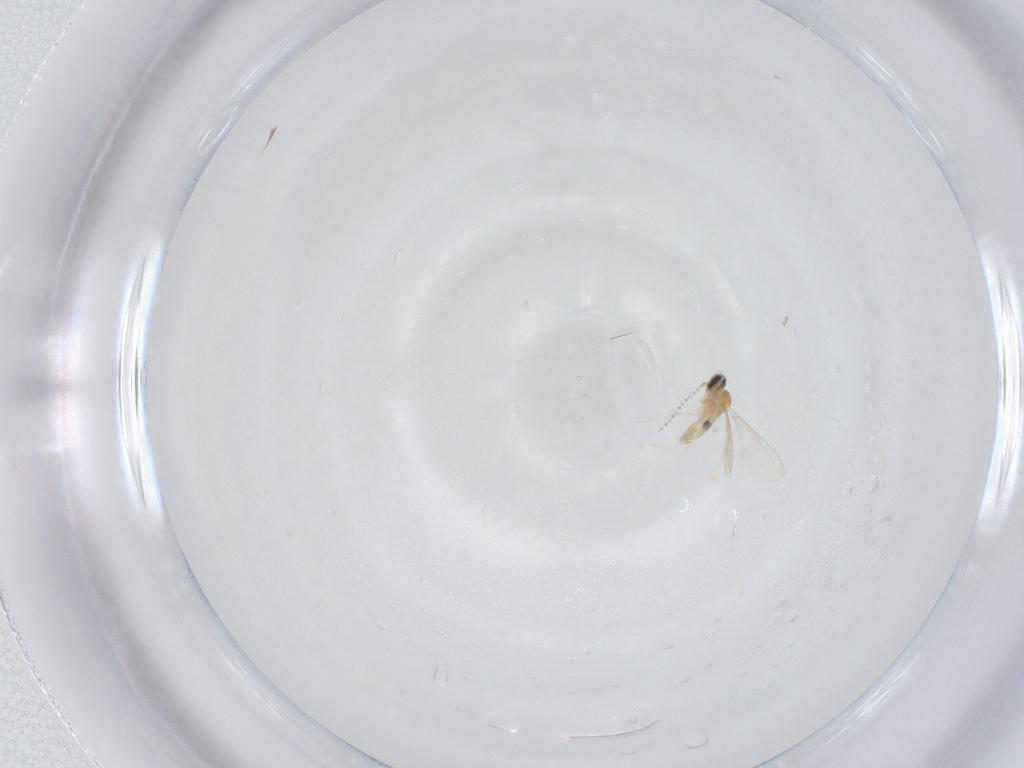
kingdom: Animalia
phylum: Arthropoda
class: Insecta
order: Diptera
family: Cecidomyiidae
